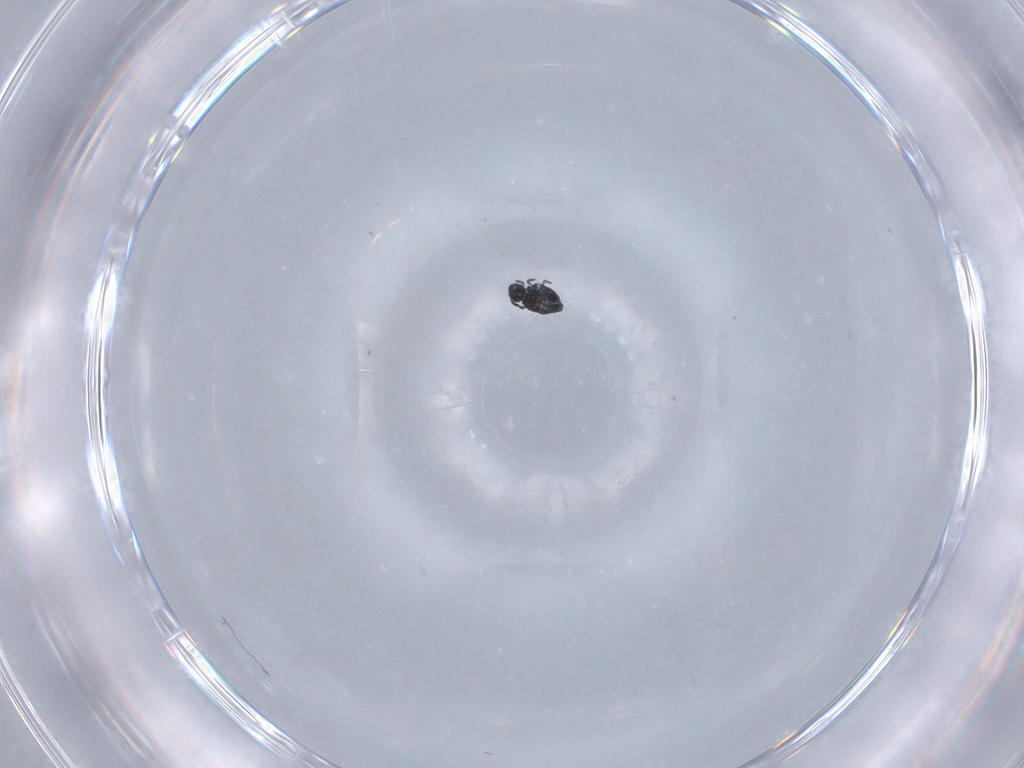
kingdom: Animalia
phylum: Arthropoda
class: Collembola
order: Symphypleona
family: Katiannidae
